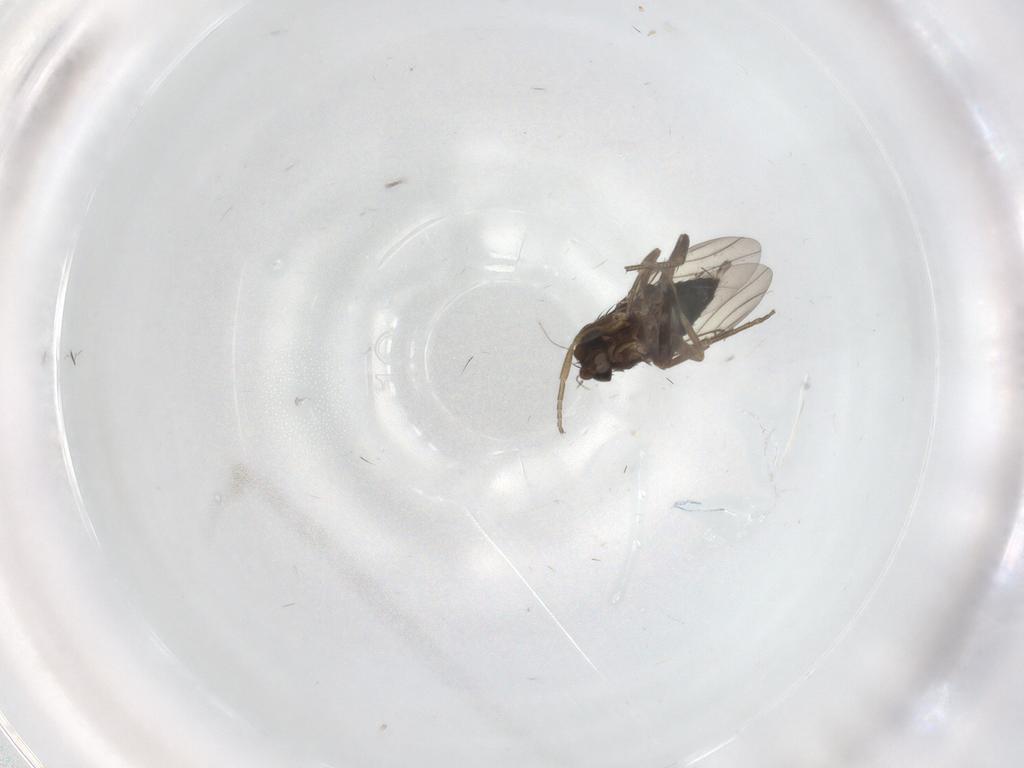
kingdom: Animalia
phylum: Arthropoda
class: Insecta
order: Diptera
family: Phoridae
